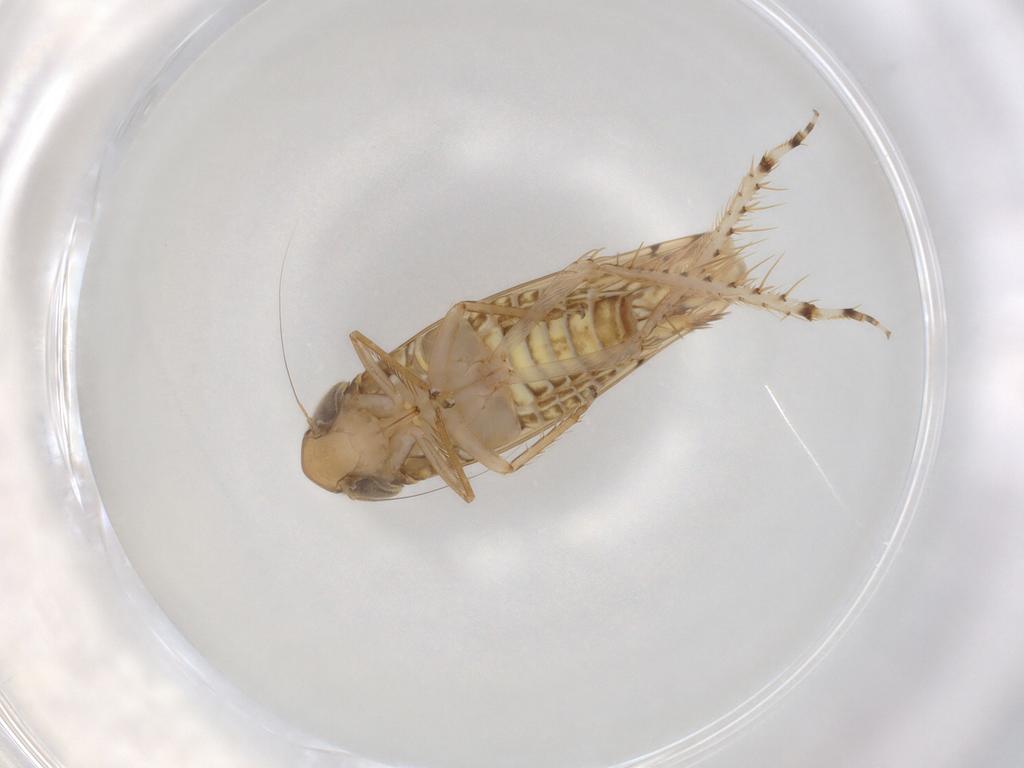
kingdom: Animalia
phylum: Arthropoda
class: Insecta
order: Hemiptera
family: Cicadellidae
